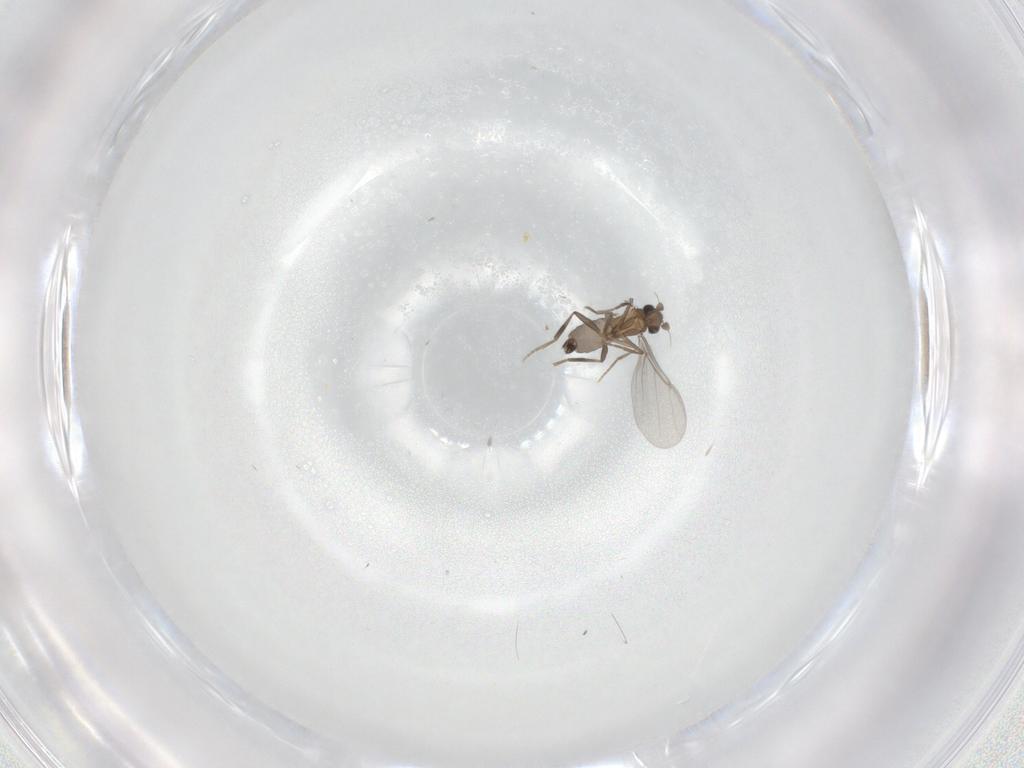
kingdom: Animalia
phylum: Arthropoda
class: Insecta
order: Diptera
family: Phoridae
